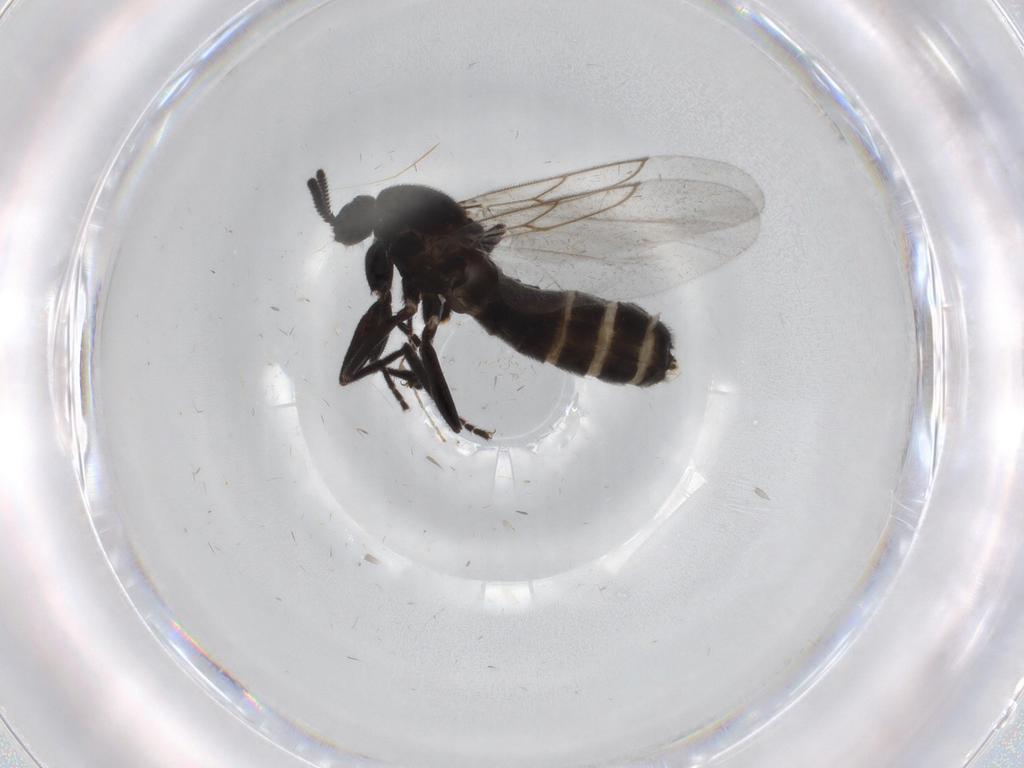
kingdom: Animalia
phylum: Arthropoda
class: Insecta
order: Diptera
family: Scatopsidae
